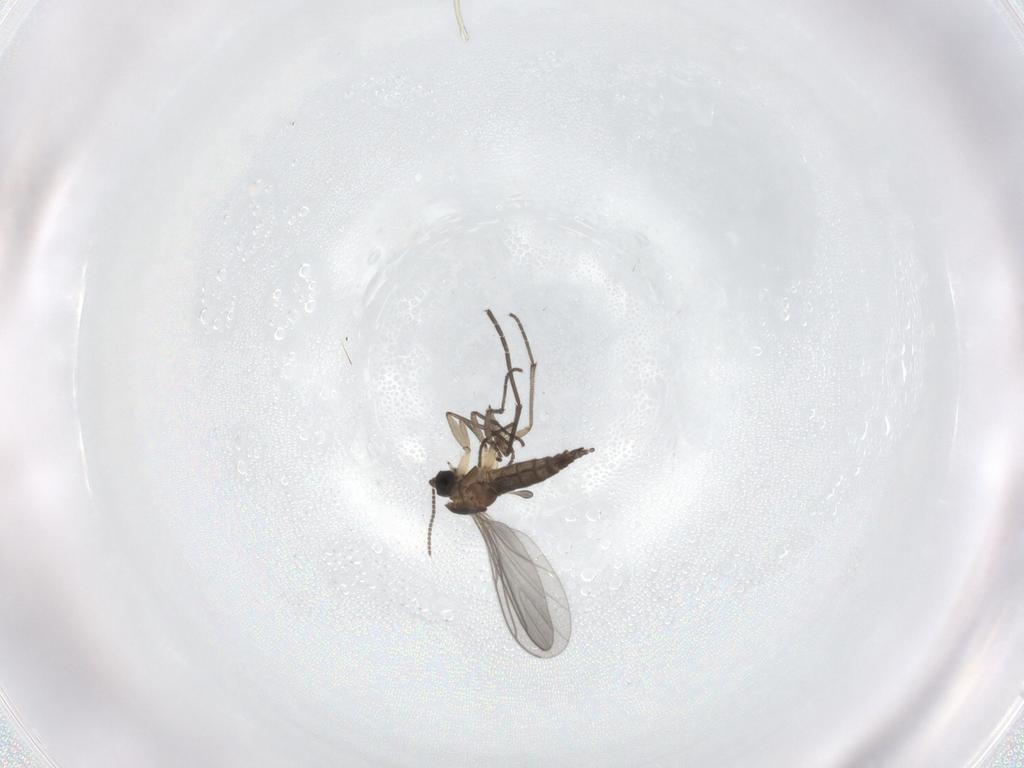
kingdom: Animalia
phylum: Arthropoda
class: Insecta
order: Diptera
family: Sciaridae
